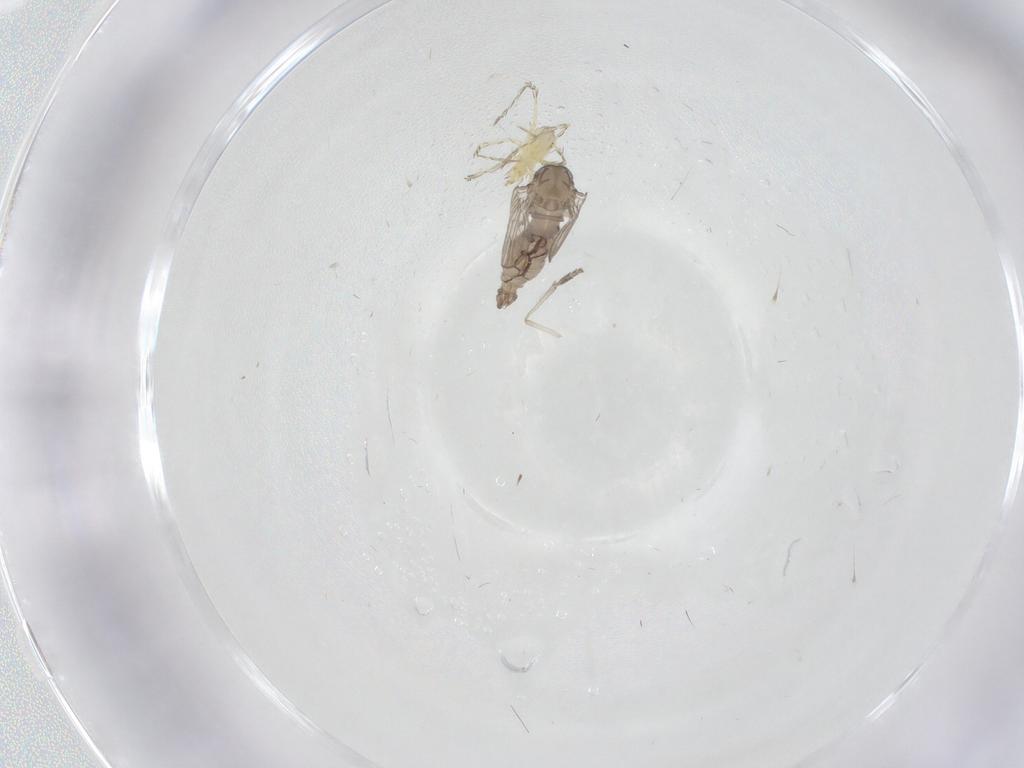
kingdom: Animalia
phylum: Arthropoda
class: Insecta
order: Diptera
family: Psychodidae
